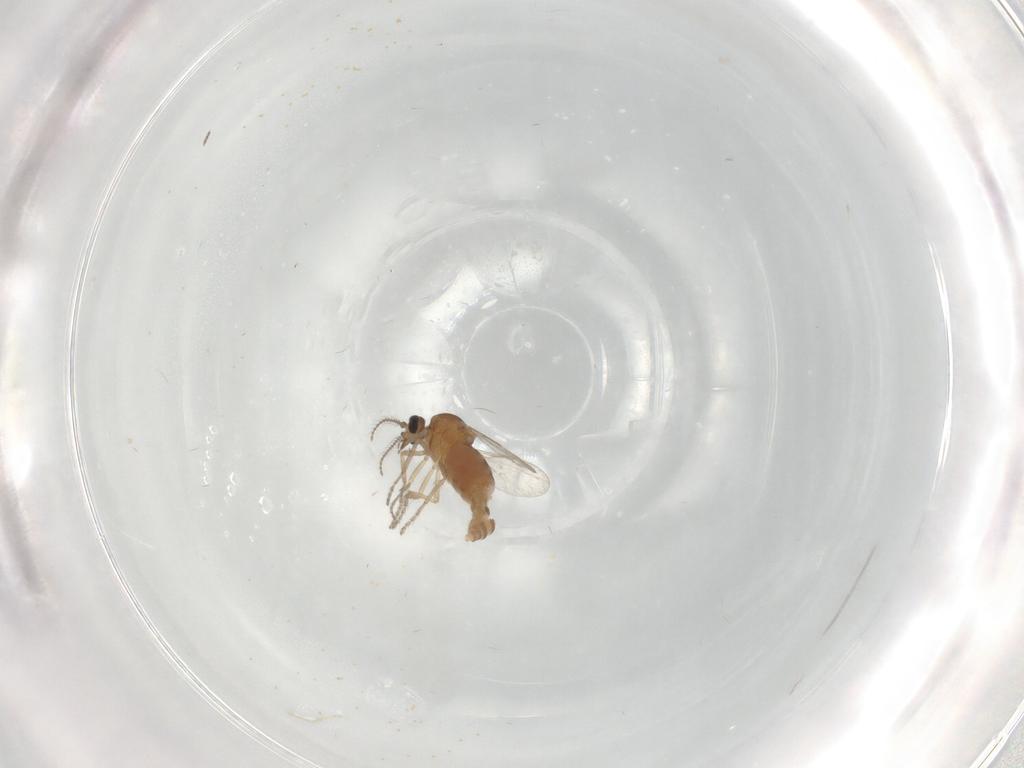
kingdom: Animalia
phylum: Arthropoda
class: Insecta
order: Diptera
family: Ceratopogonidae
